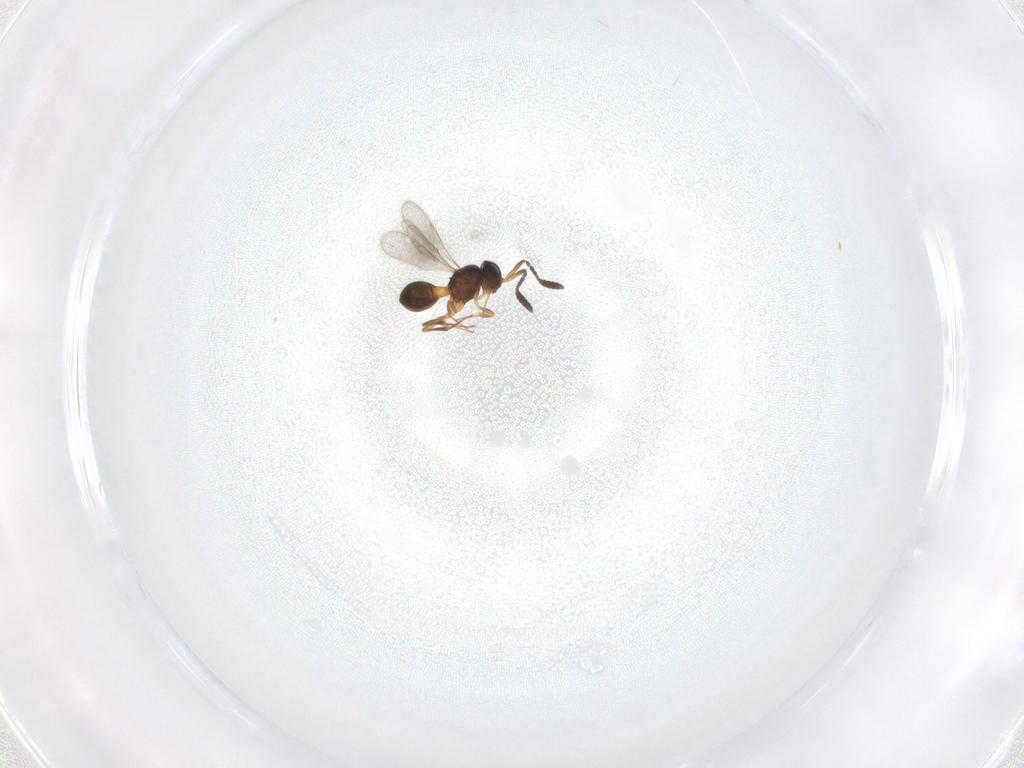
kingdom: Animalia
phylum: Arthropoda
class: Insecta
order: Hymenoptera
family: Scelionidae
